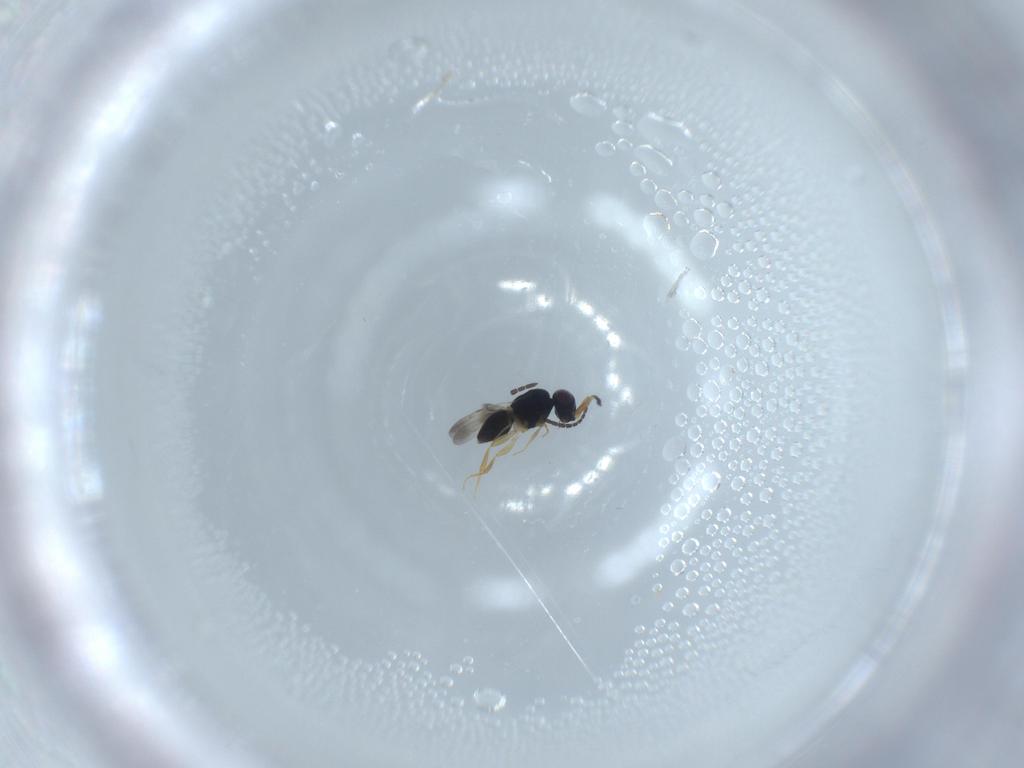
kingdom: Animalia
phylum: Arthropoda
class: Insecta
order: Hymenoptera
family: Ceraphronidae
